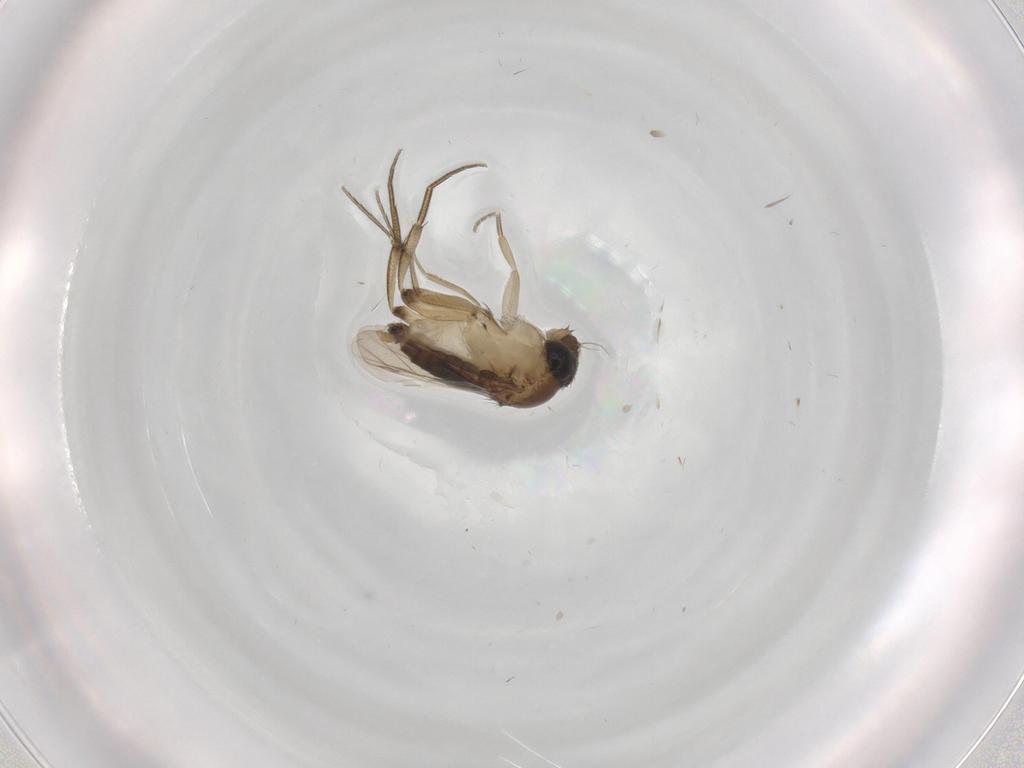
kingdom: Animalia
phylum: Arthropoda
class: Insecta
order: Diptera
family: Phoridae
